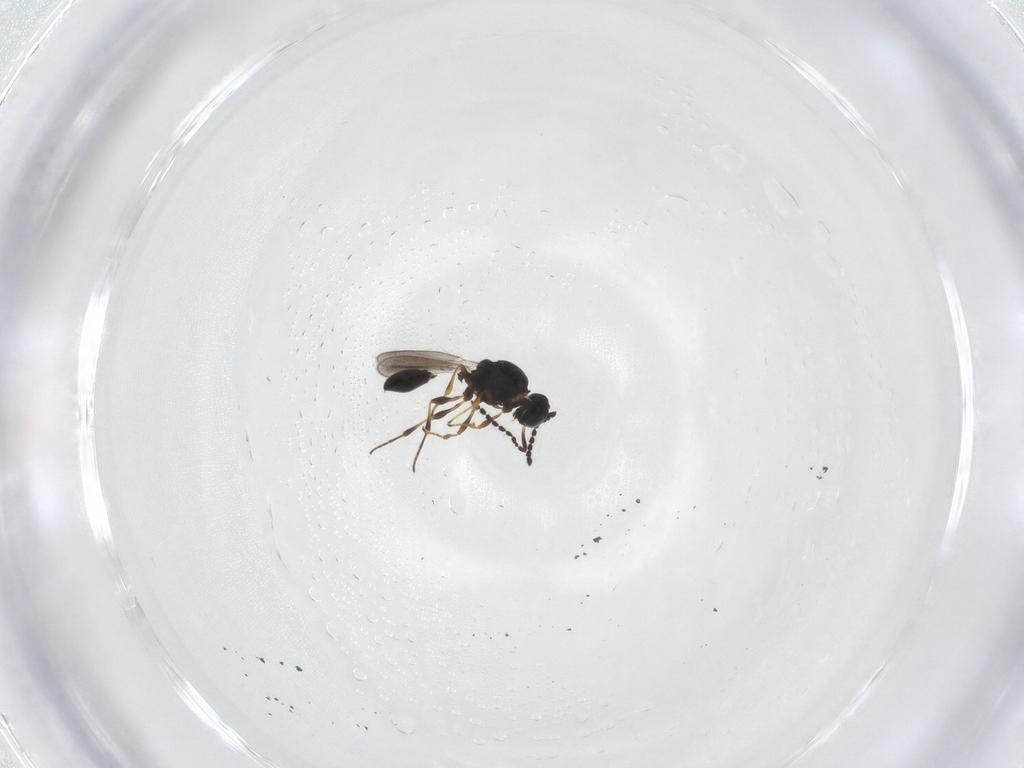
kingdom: Animalia
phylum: Arthropoda
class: Insecta
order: Hymenoptera
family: Platygastridae
